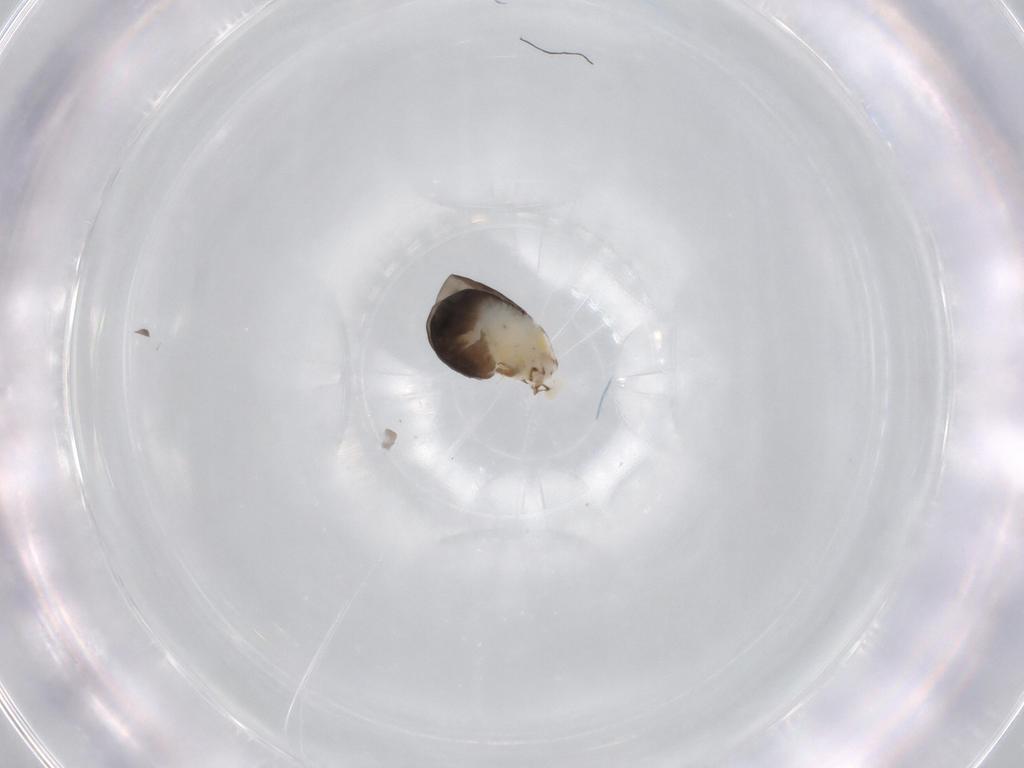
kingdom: Animalia
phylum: Arthropoda
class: Insecta
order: Hymenoptera
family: Dryinidae
